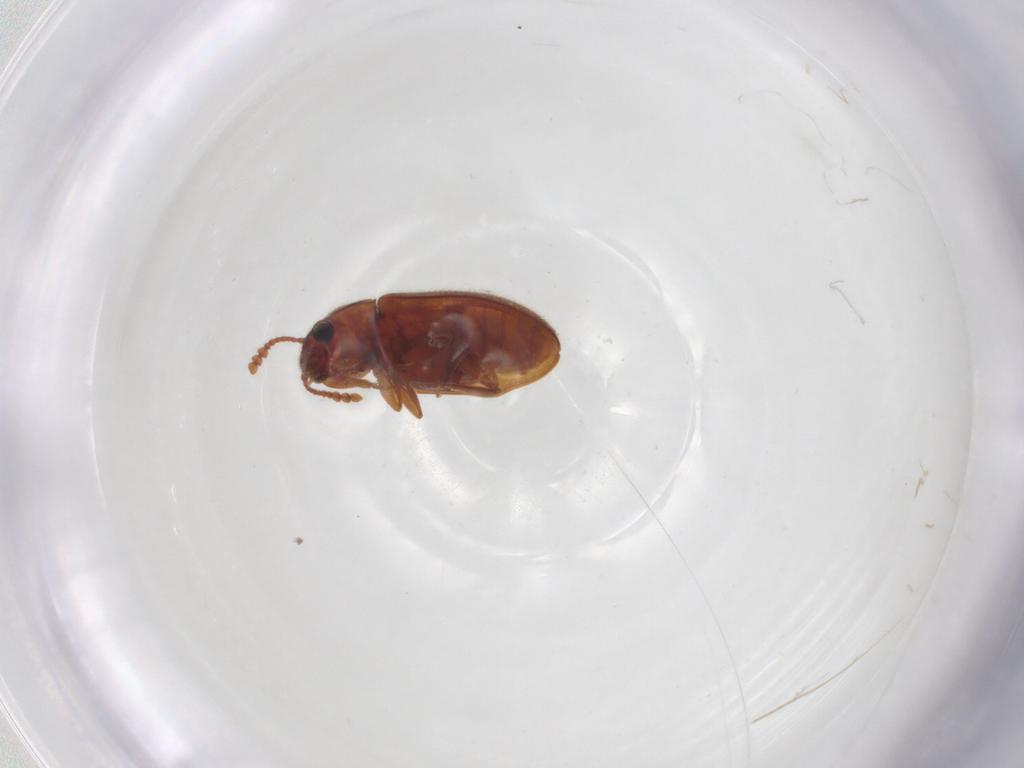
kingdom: Animalia
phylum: Arthropoda
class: Insecta
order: Coleoptera
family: Erotylidae
